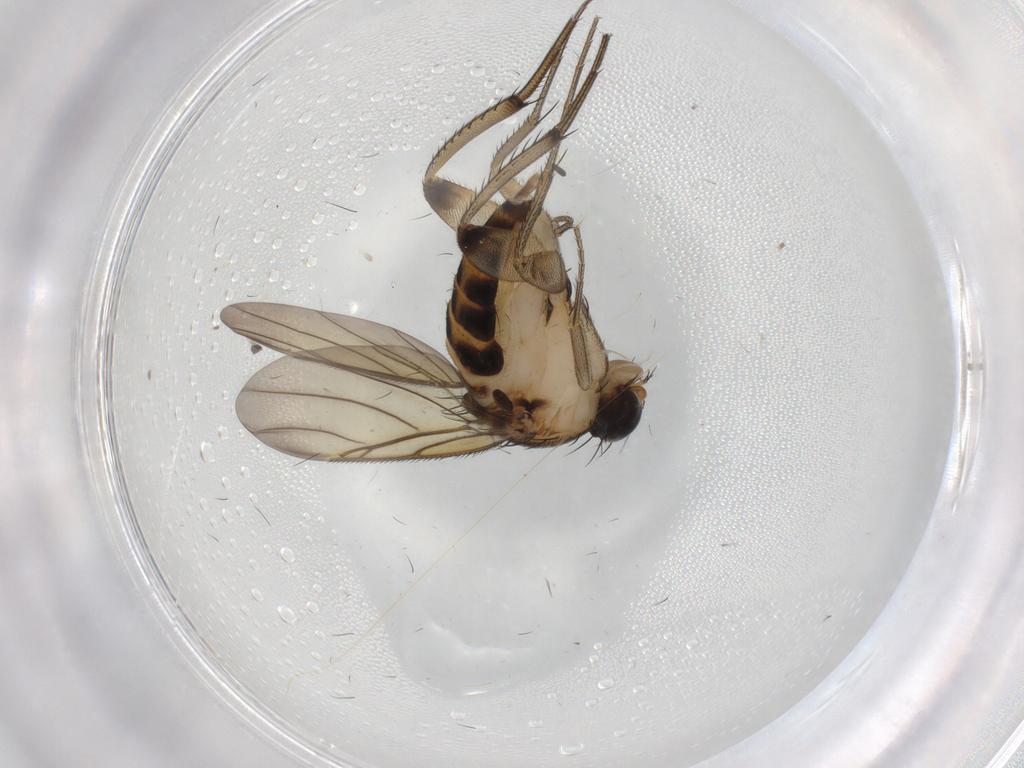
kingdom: Animalia
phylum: Arthropoda
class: Insecta
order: Diptera
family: Phoridae
